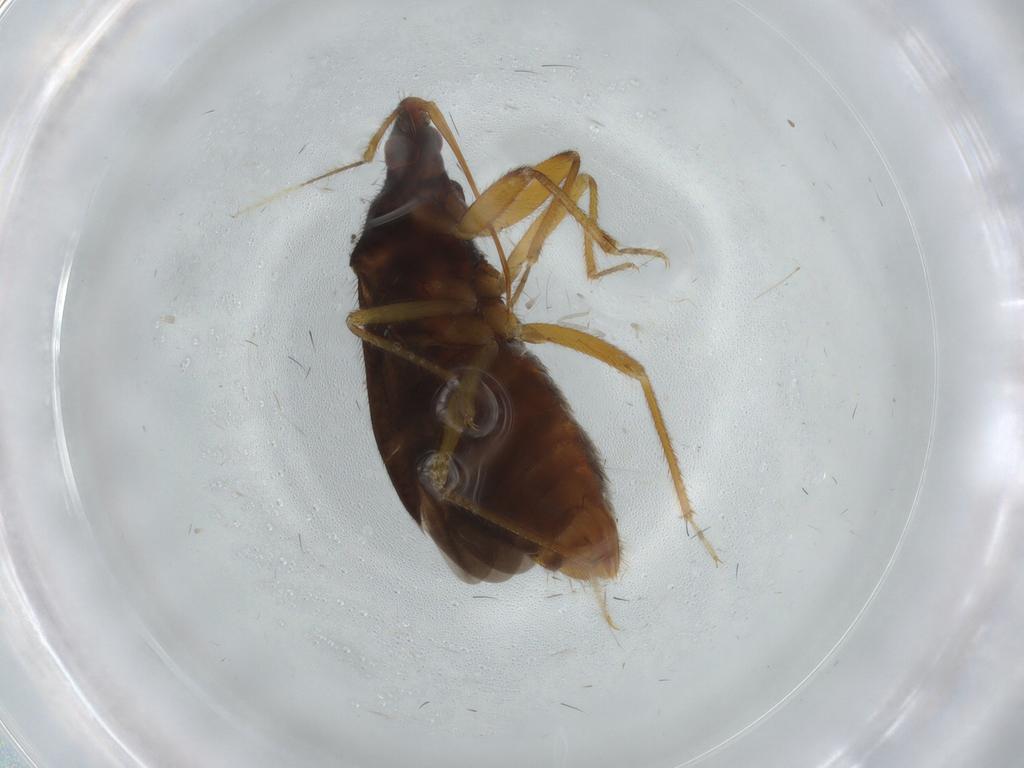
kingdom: Animalia
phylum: Arthropoda
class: Insecta
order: Hemiptera
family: Anthocoridae
